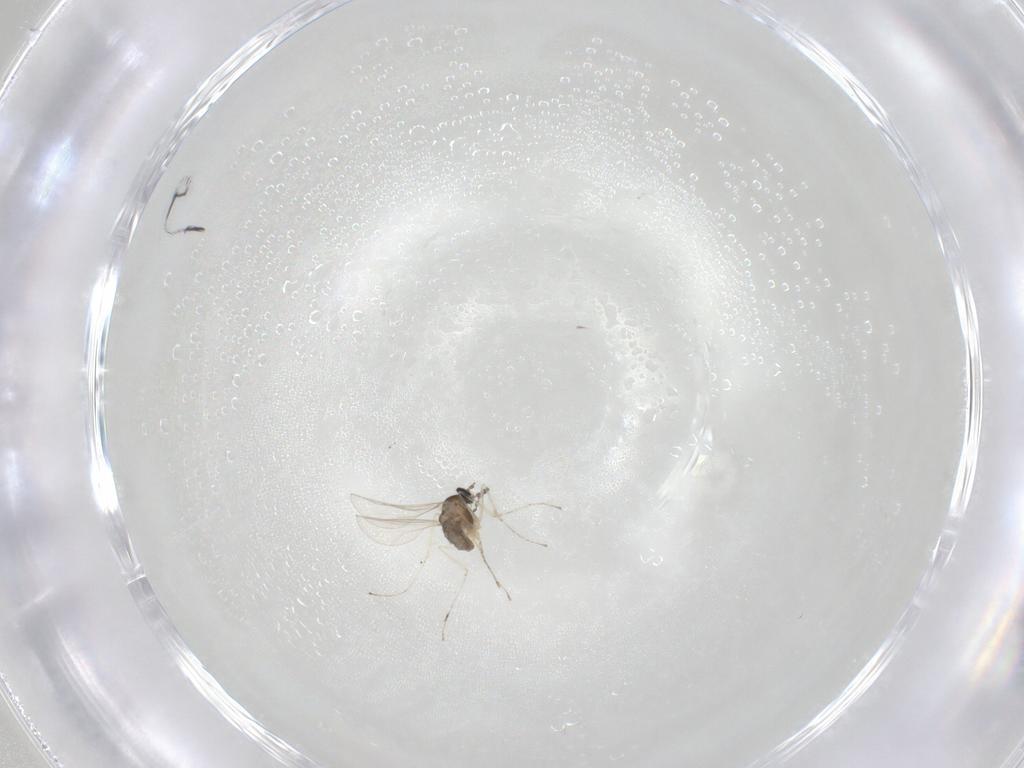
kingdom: Animalia
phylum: Arthropoda
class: Insecta
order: Diptera
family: Cecidomyiidae
